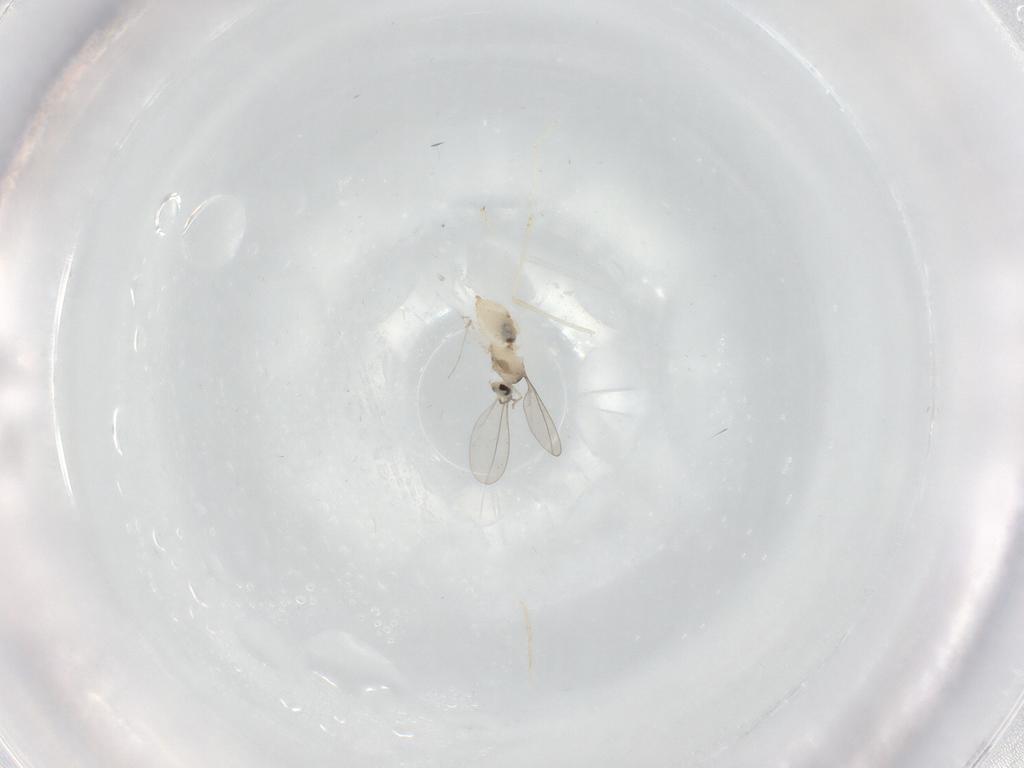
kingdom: Animalia
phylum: Arthropoda
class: Insecta
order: Diptera
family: Cecidomyiidae
